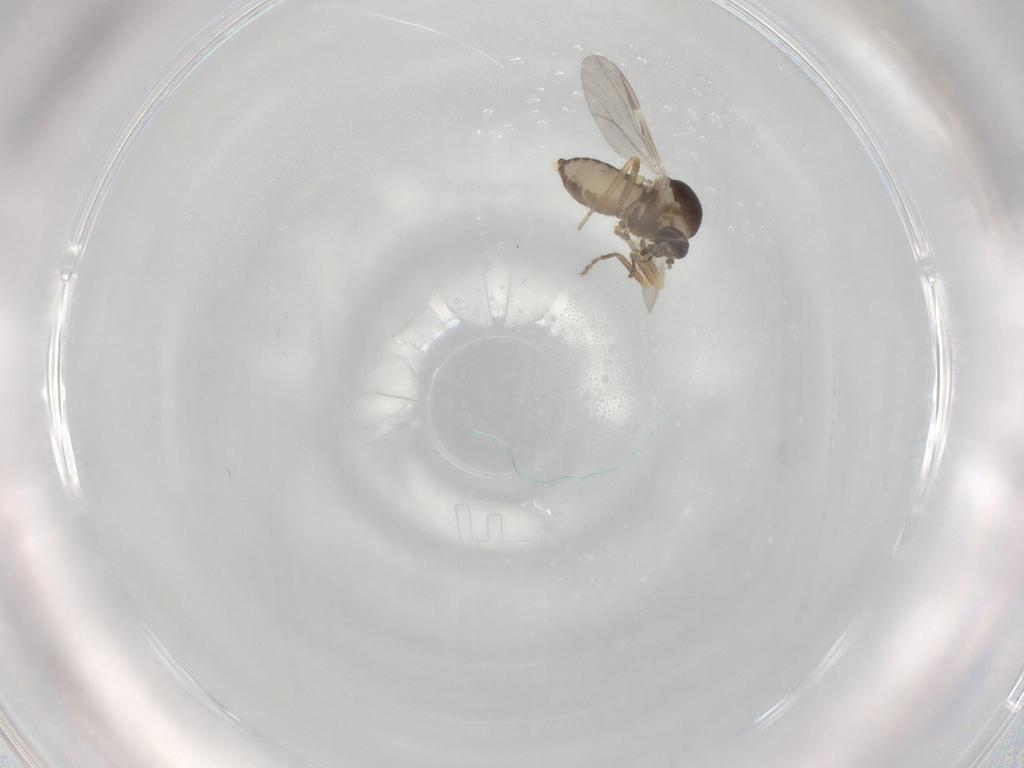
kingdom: Animalia
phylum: Arthropoda
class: Insecta
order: Diptera
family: Ceratopogonidae
